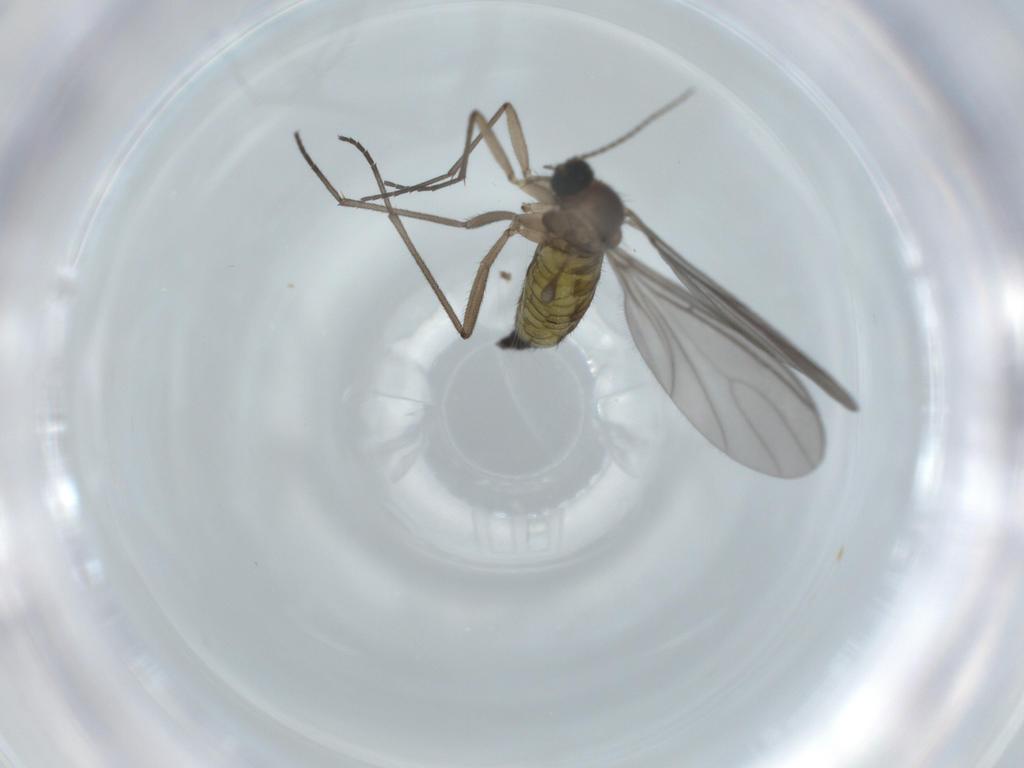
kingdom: Animalia
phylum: Arthropoda
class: Insecta
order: Diptera
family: Sciaridae
